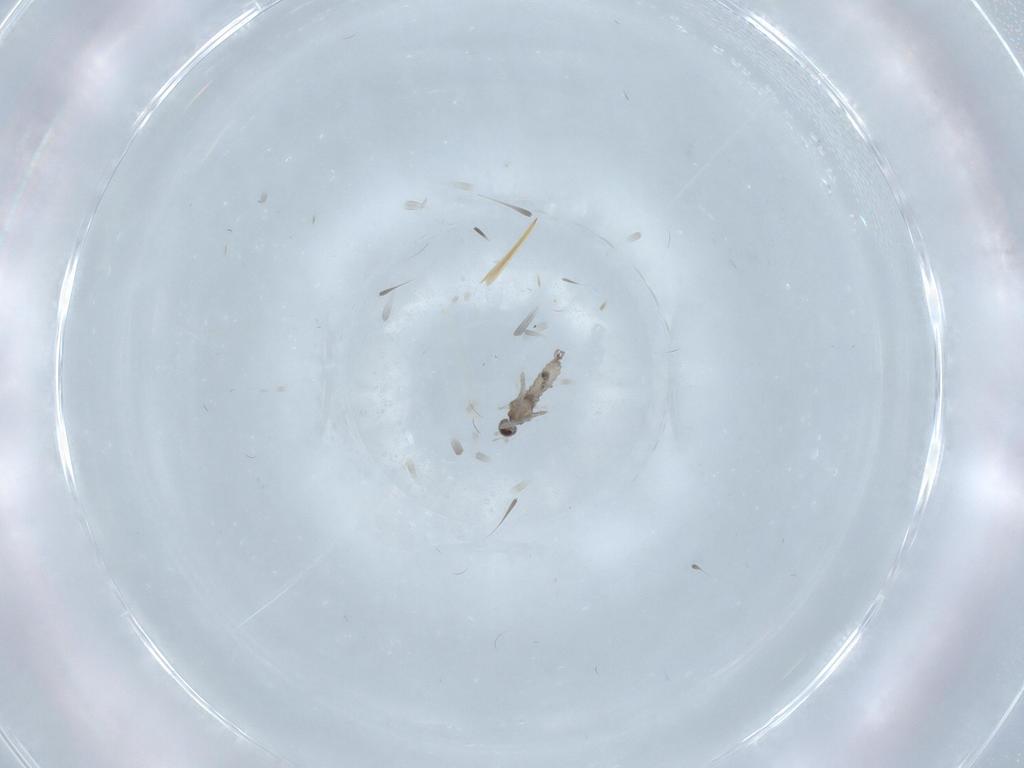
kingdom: Animalia
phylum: Arthropoda
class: Insecta
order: Diptera
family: Cecidomyiidae
